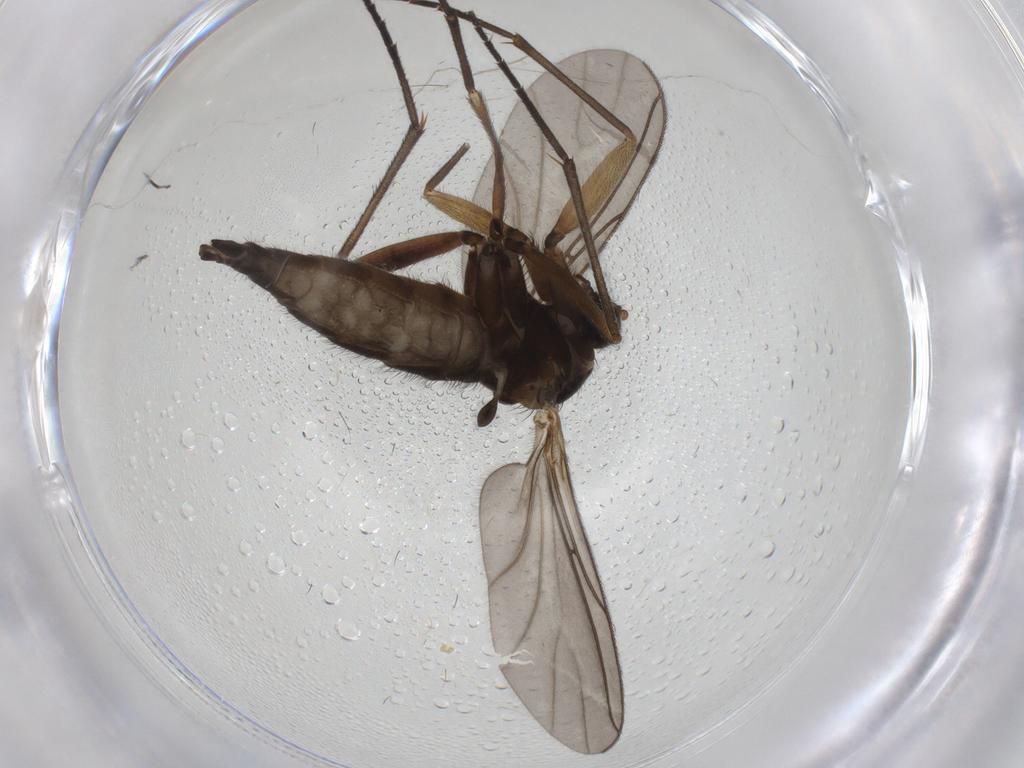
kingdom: Animalia
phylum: Arthropoda
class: Insecta
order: Diptera
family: Sciaridae
